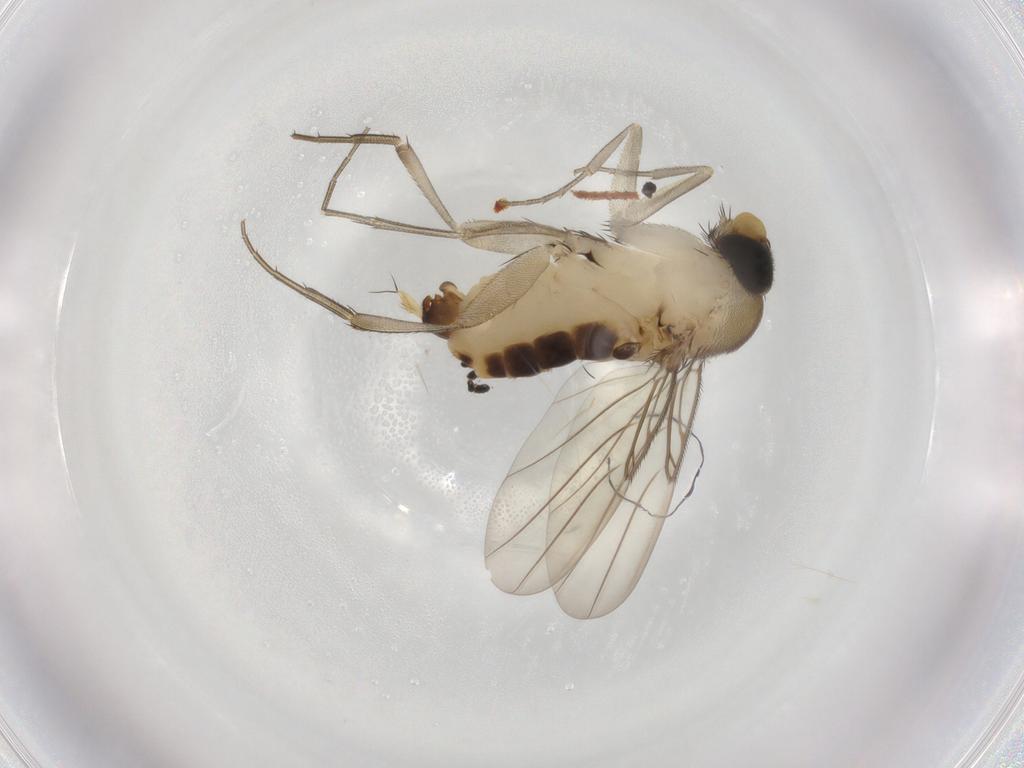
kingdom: Animalia
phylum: Arthropoda
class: Insecta
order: Diptera
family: Phoridae
